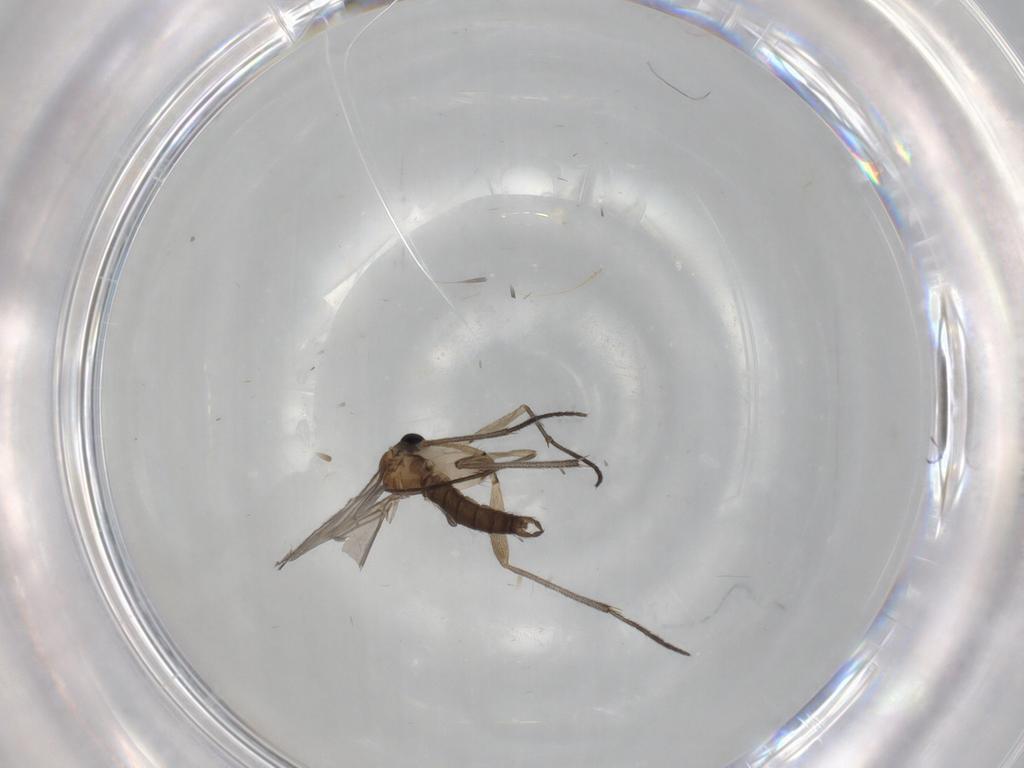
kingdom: Animalia
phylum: Arthropoda
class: Insecta
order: Diptera
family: Sciaridae
